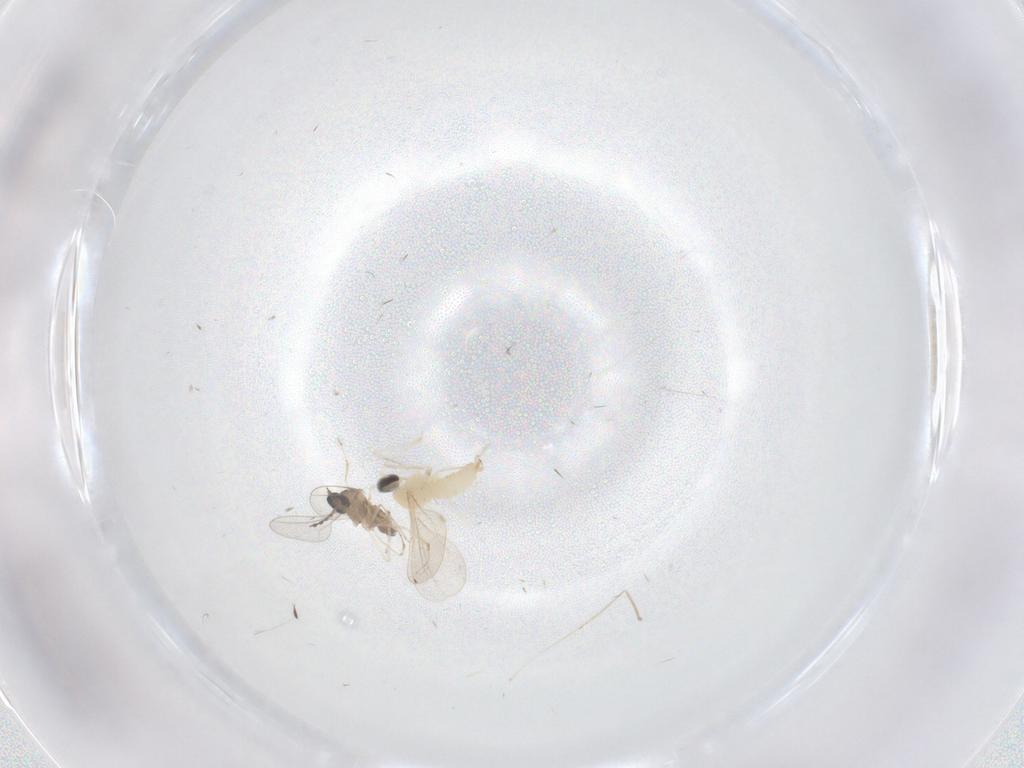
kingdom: Animalia
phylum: Arthropoda
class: Insecta
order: Diptera
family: Cecidomyiidae
